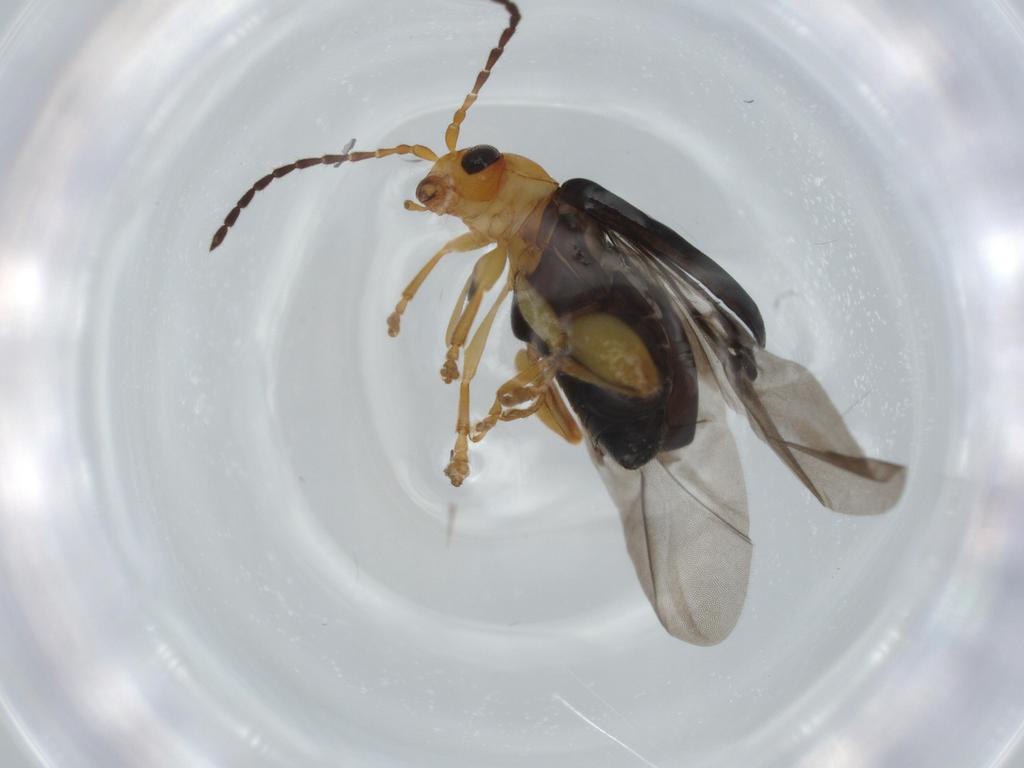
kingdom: Animalia
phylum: Arthropoda
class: Insecta
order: Coleoptera
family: Chrysomelidae
